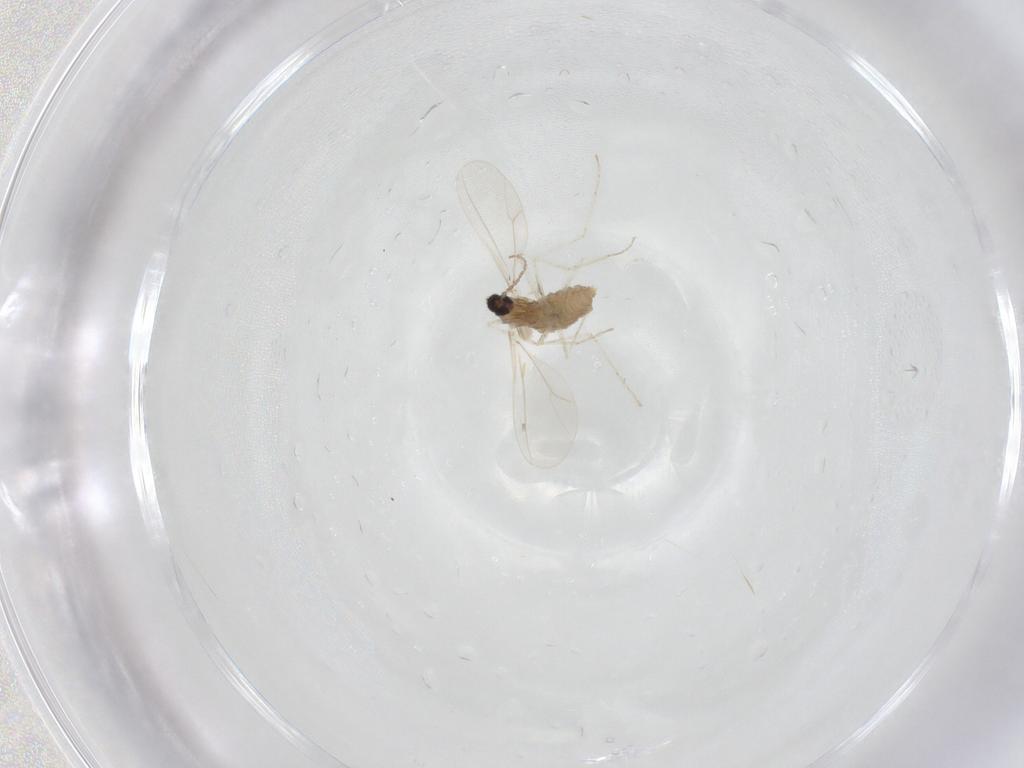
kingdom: Animalia
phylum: Arthropoda
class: Insecta
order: Diptera
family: Cecidomyiidae
